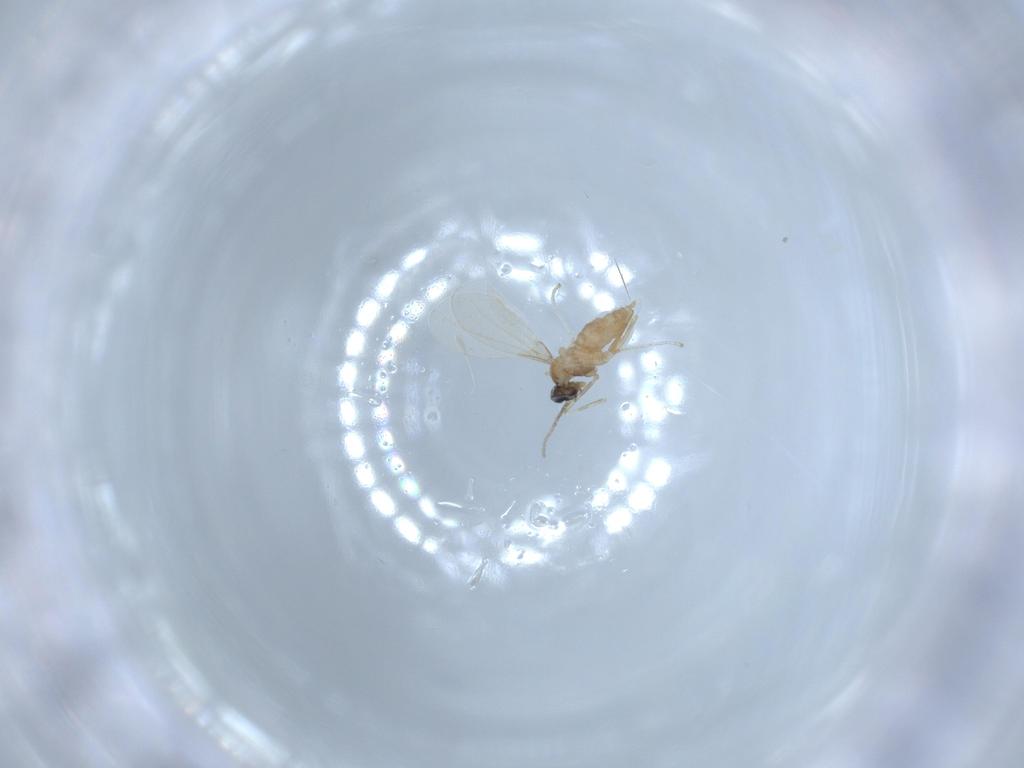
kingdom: Animalia
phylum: Arthropoda
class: Insecta
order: Diptera
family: Cecidomyiidae
